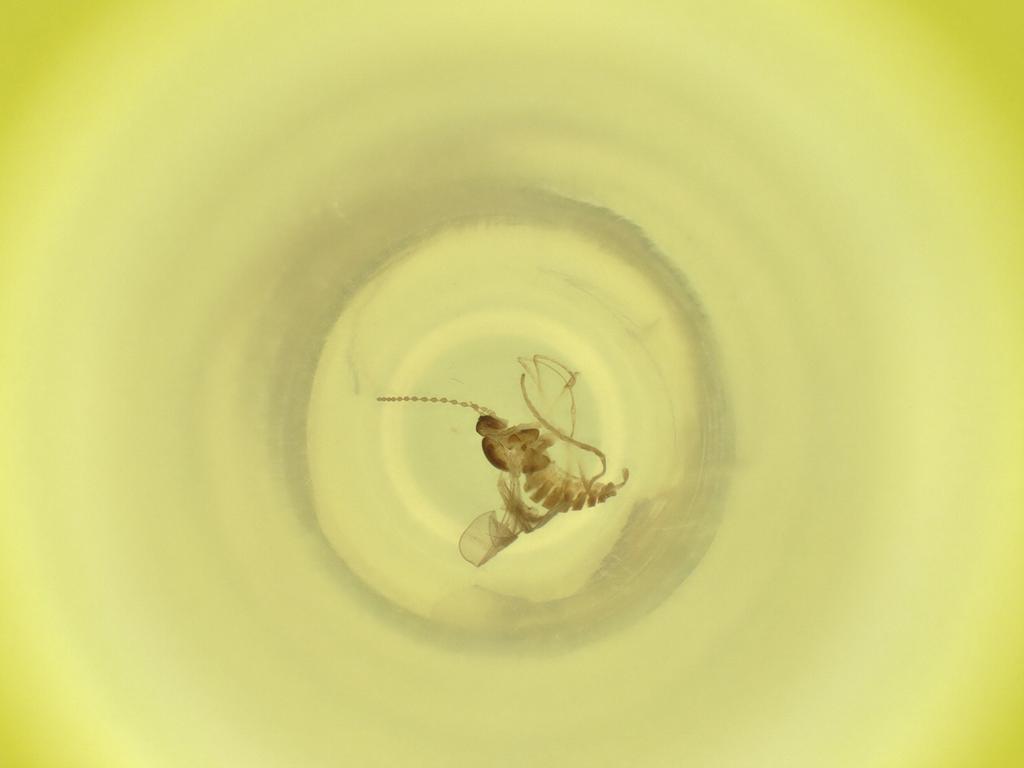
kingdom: Animalia
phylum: Arthropoda
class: Insecta
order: Diptera
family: Cecidomyiidae
